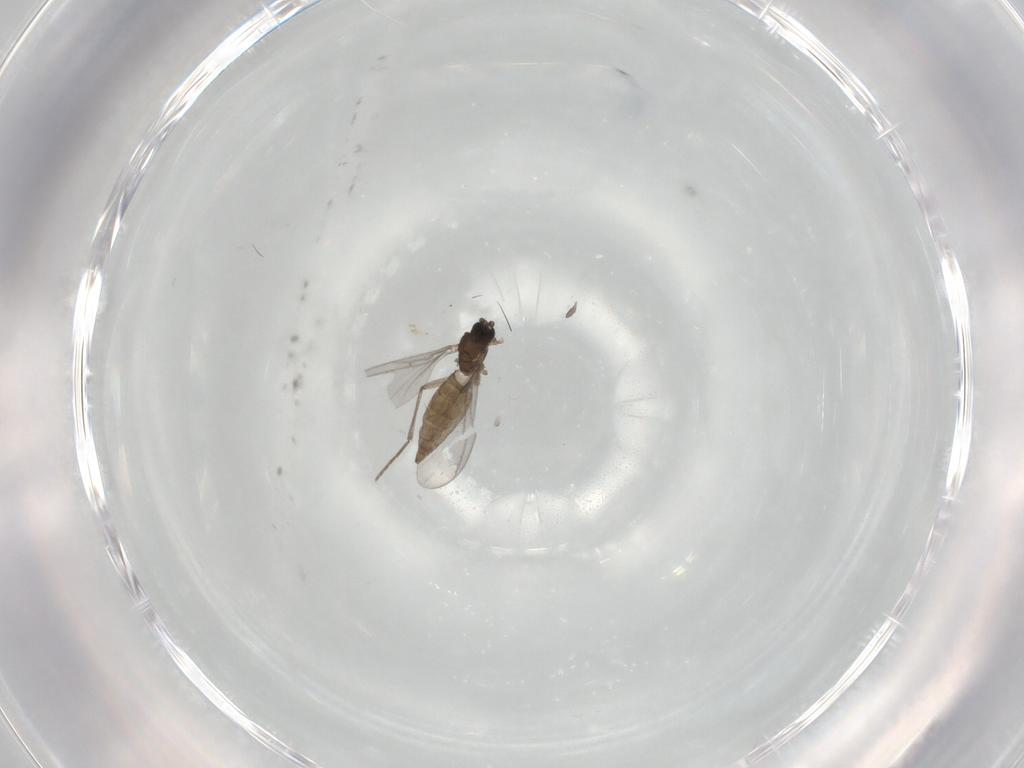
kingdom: Animalia
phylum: Arthropoda
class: Insecta
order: Diptera
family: Sciaridae
